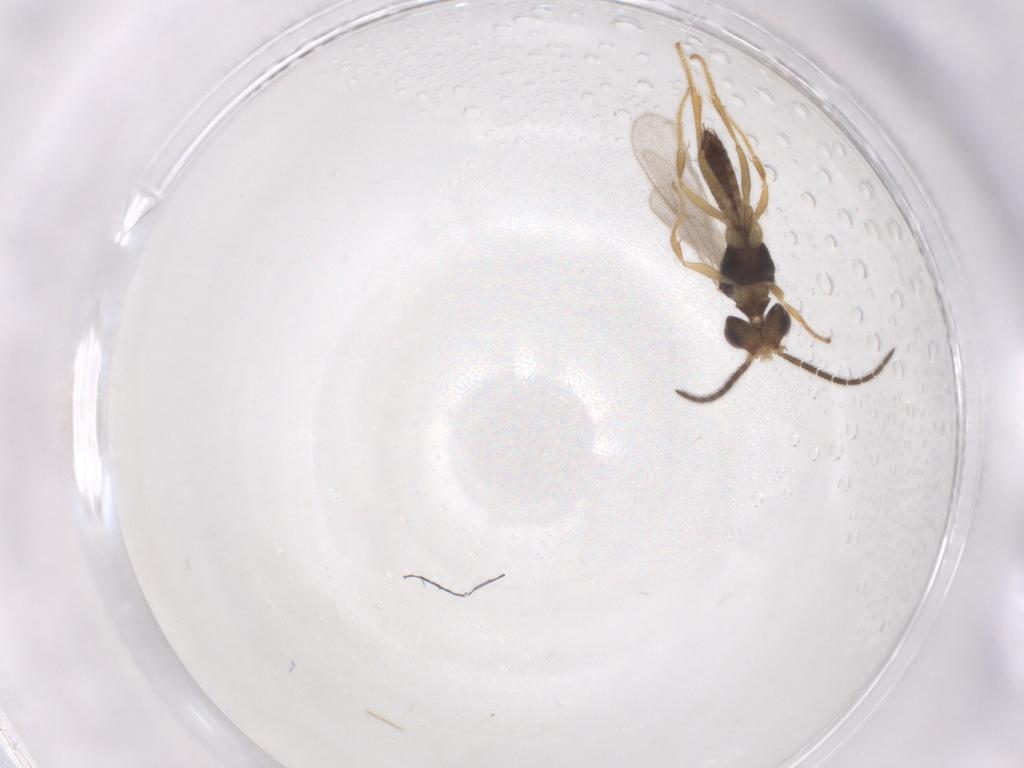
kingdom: Animalia
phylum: Arthropoda
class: Insecta
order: Hymenoptera
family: Dryinidae
